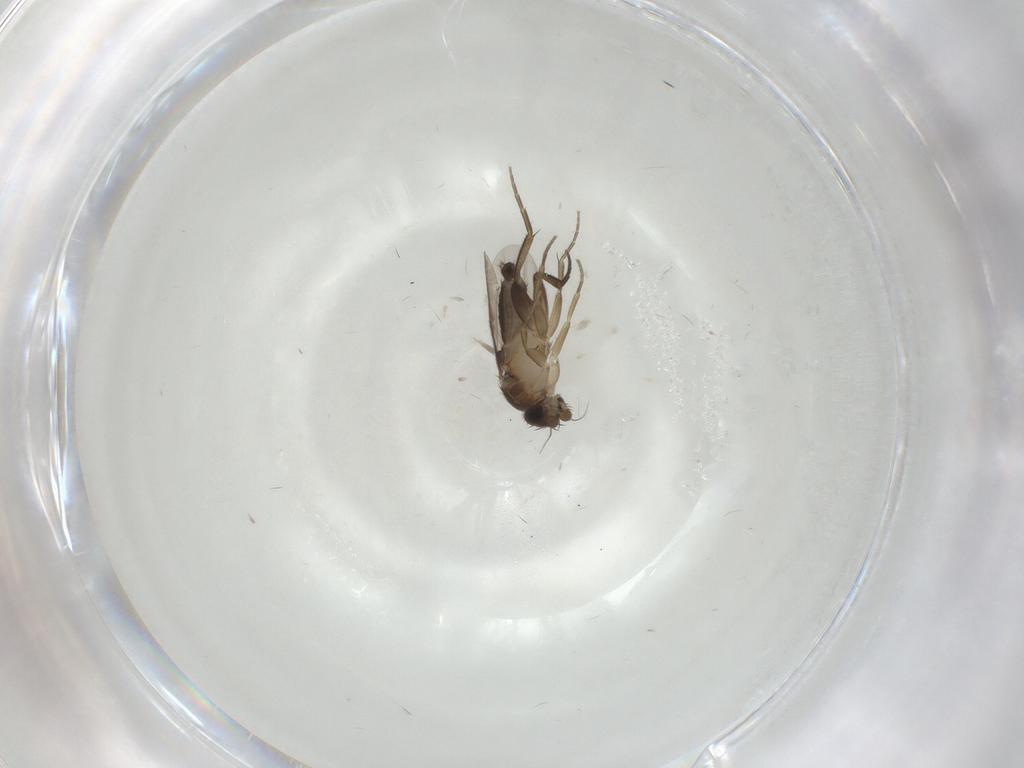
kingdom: Animalia
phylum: Arthropoda
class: Insecta
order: Diptera
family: Phoridae
